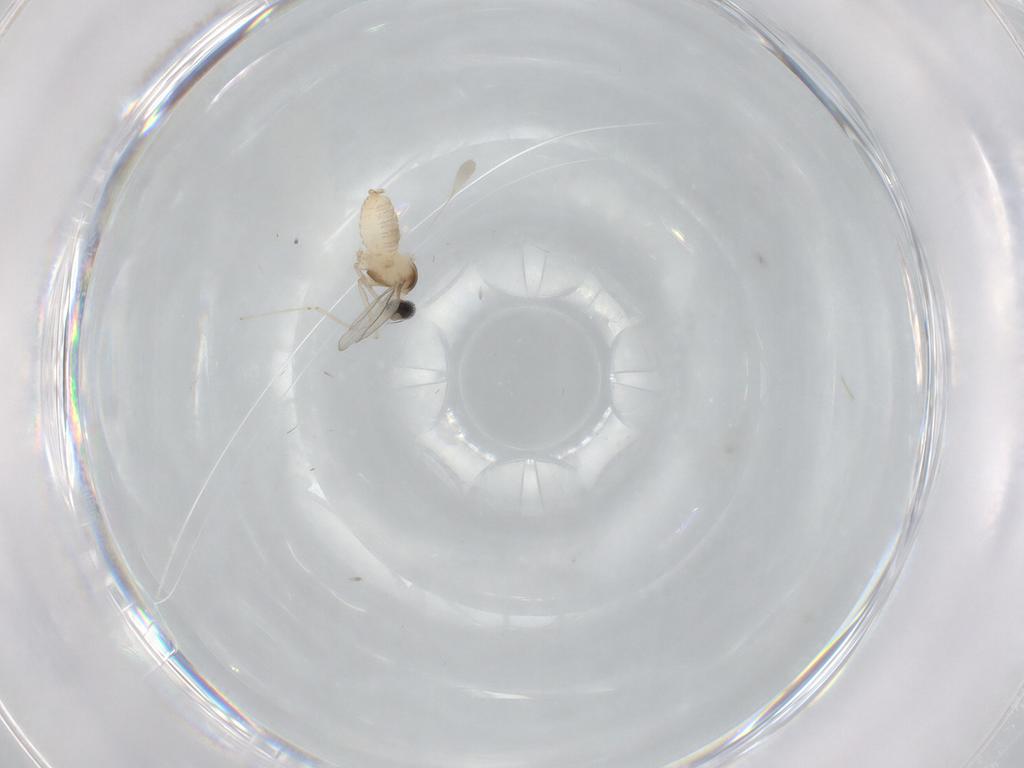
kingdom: Animalia
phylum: Arthropoda
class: Insecta
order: Diptera
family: Cecidomyiidae
